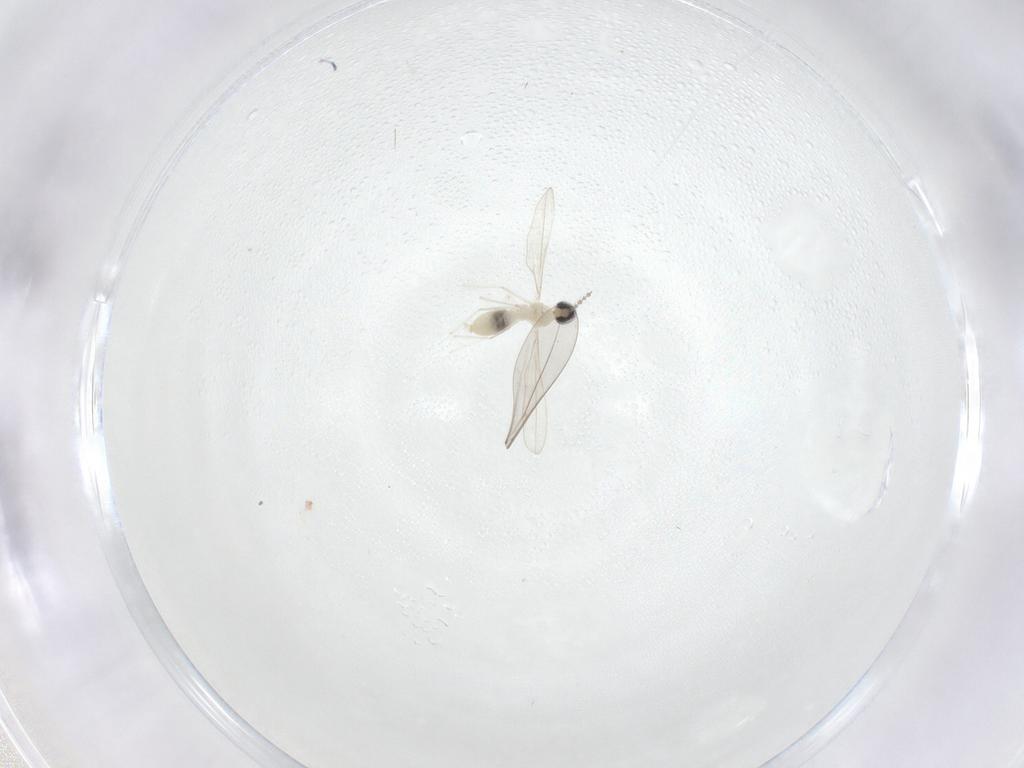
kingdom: Animalia
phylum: Arthropoda
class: Insecta
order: Diptera
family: Cecidomyiidae
